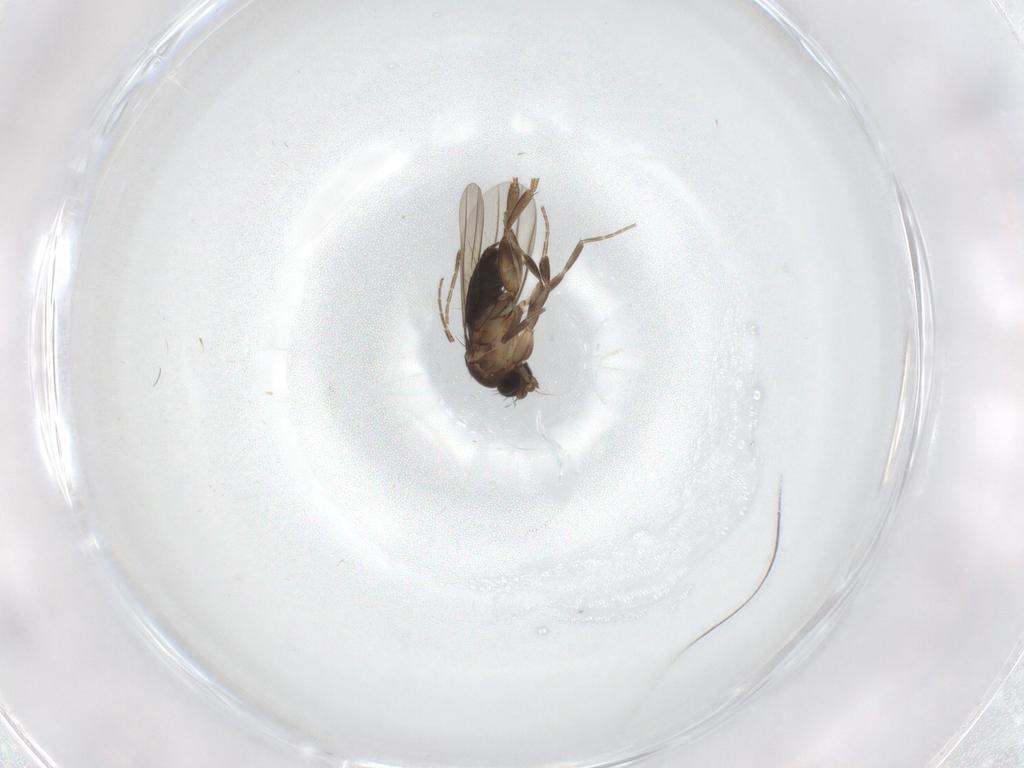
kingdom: Animalia
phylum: Arthropoda
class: Insecta
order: Diptera
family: Phoridae
